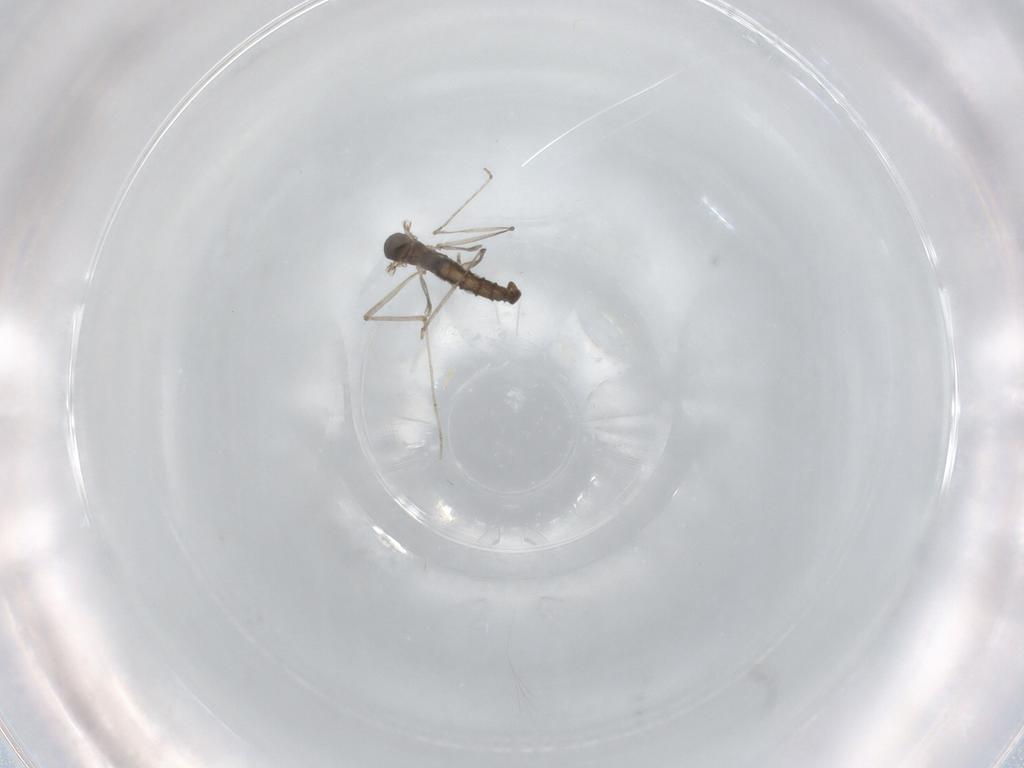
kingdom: Animalia
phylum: Arthropoda
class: Insecta
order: Diptera
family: Cecidomyiidae
